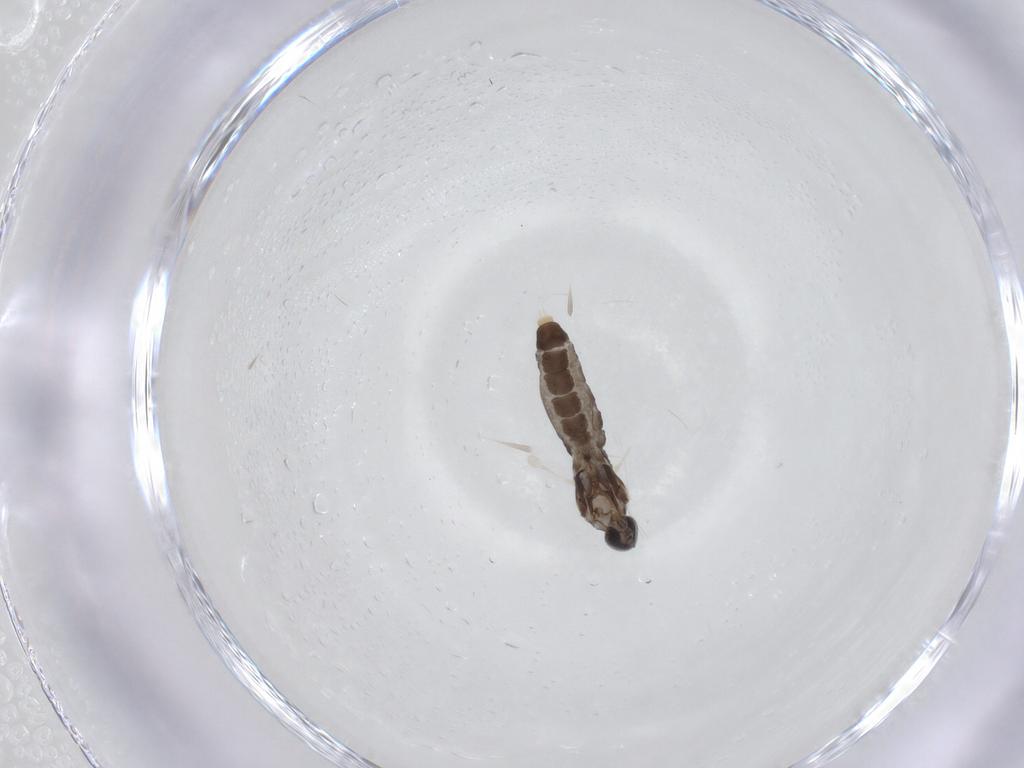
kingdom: Animalia
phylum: Arthropoda
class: Insecta
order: Diptera
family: Cecidomyiidae
